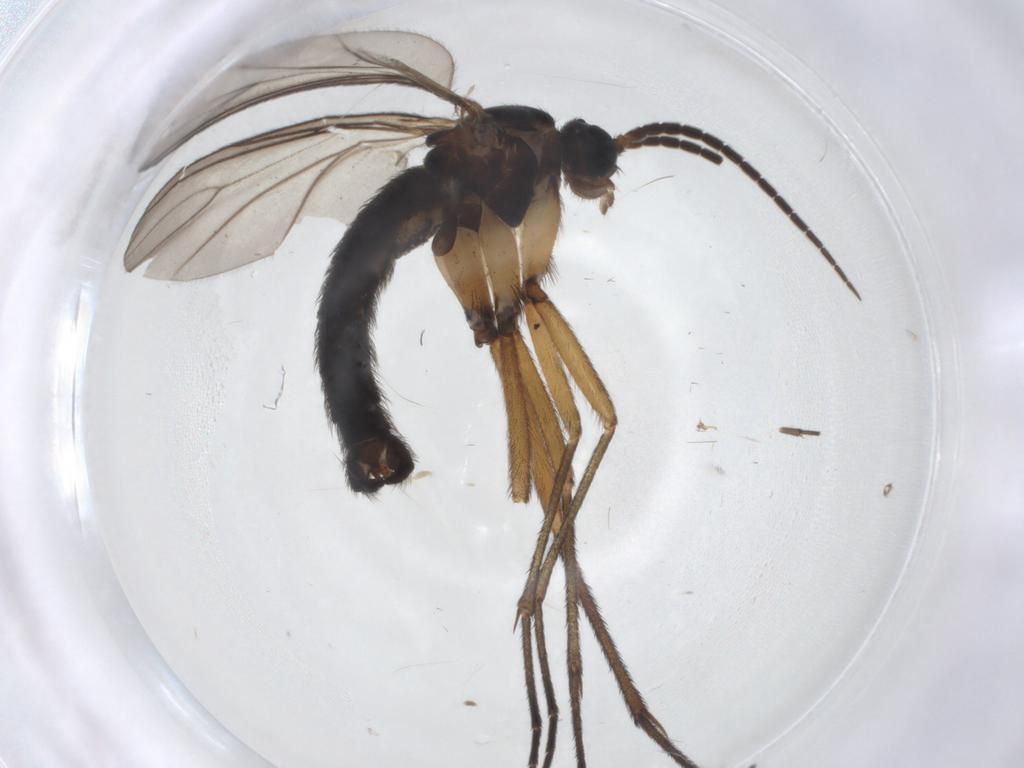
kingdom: Animalia
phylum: Arthropoda
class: Insecta
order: Diptera
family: Sciaridae
